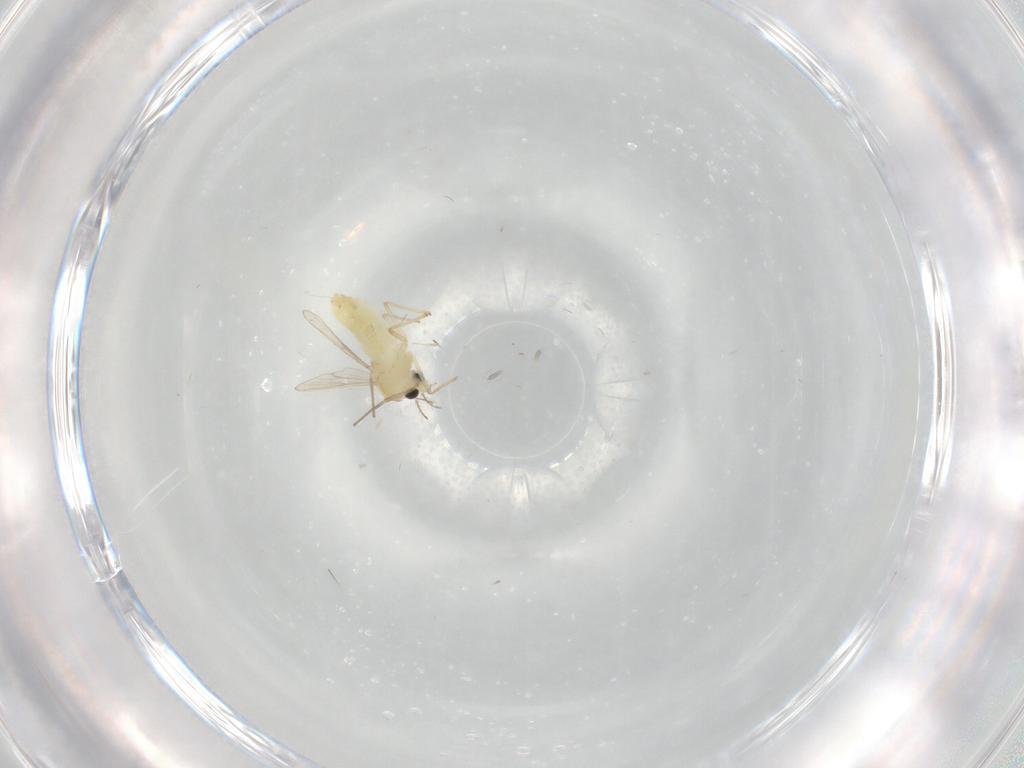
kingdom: Animalia
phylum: Arthropoda
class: Insecta
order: Diptera
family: Chironomidae
